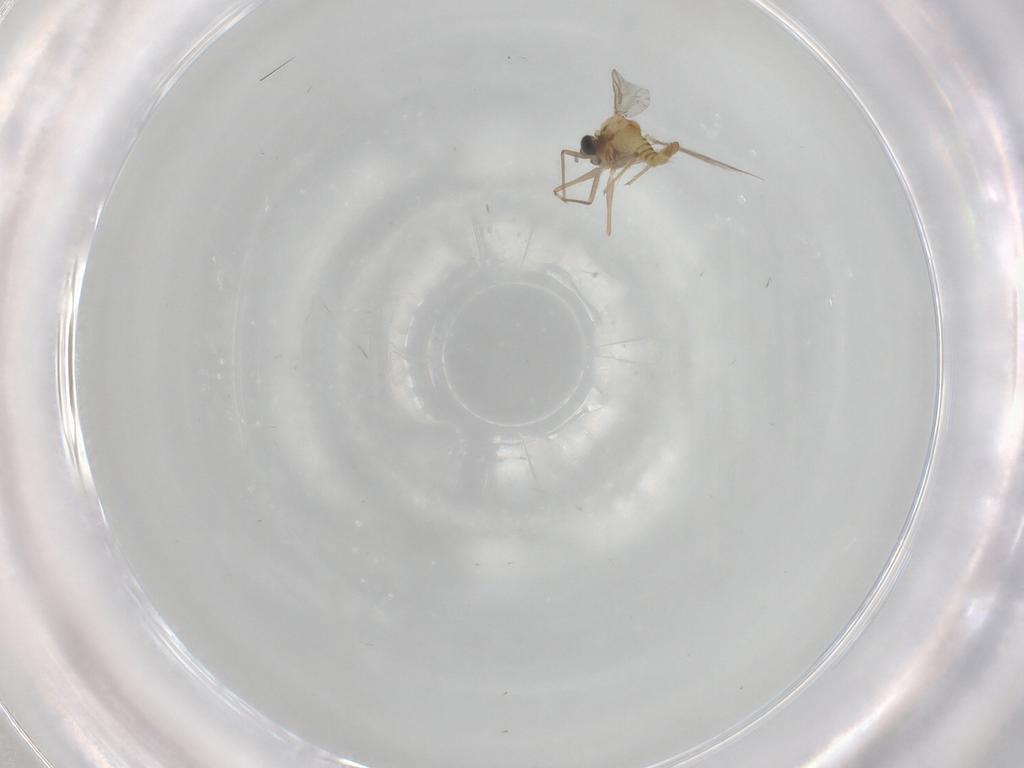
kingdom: Animalia
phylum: Arthropoda
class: Insecta
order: Diptera
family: Chironomidae
